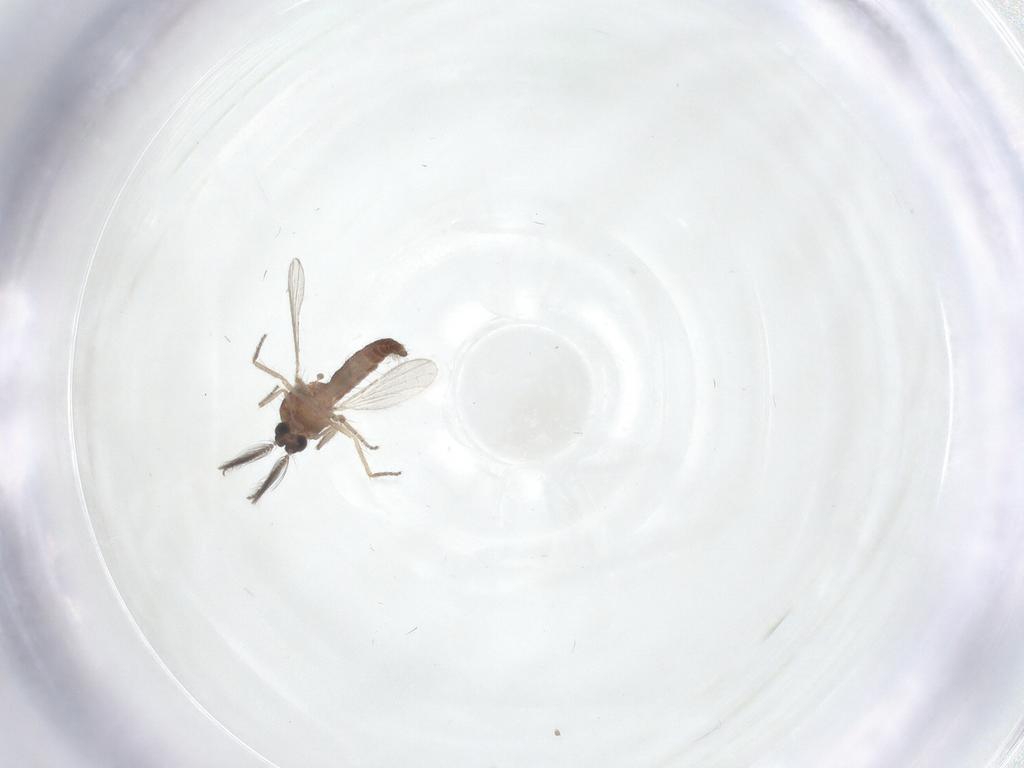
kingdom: Animalia
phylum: Arthropoda
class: Insecta
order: Diptera
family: Ceratopogonidae
